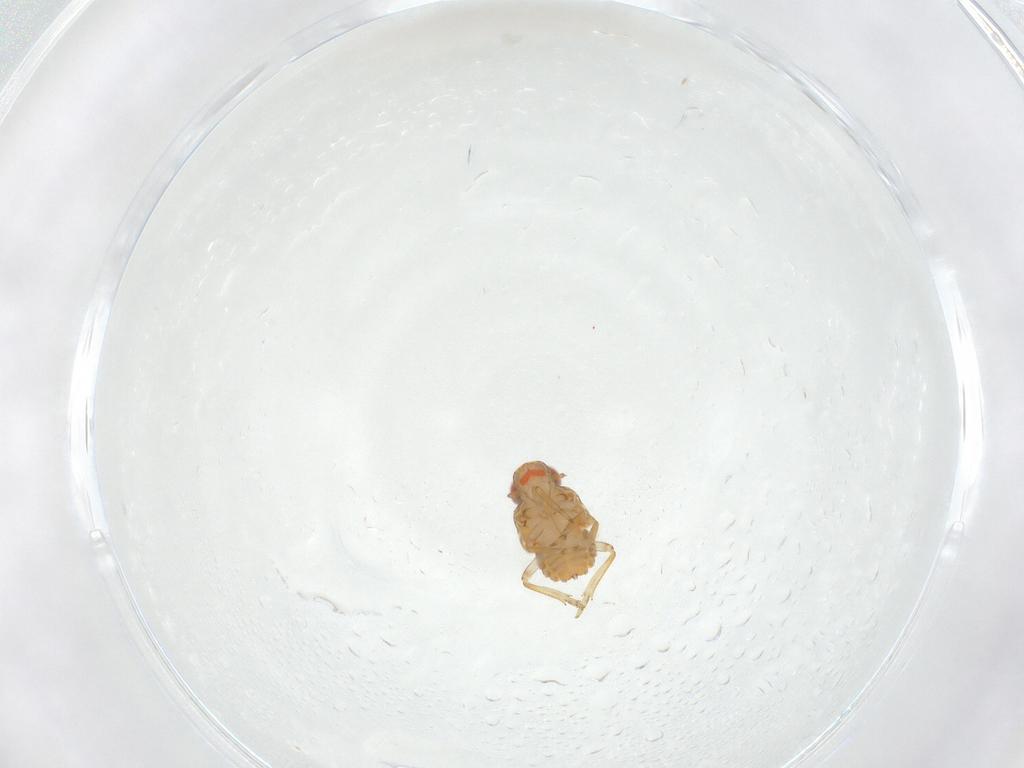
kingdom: Animalia
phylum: Arthropoda
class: Insecta
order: Hemiptera
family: Issidae
